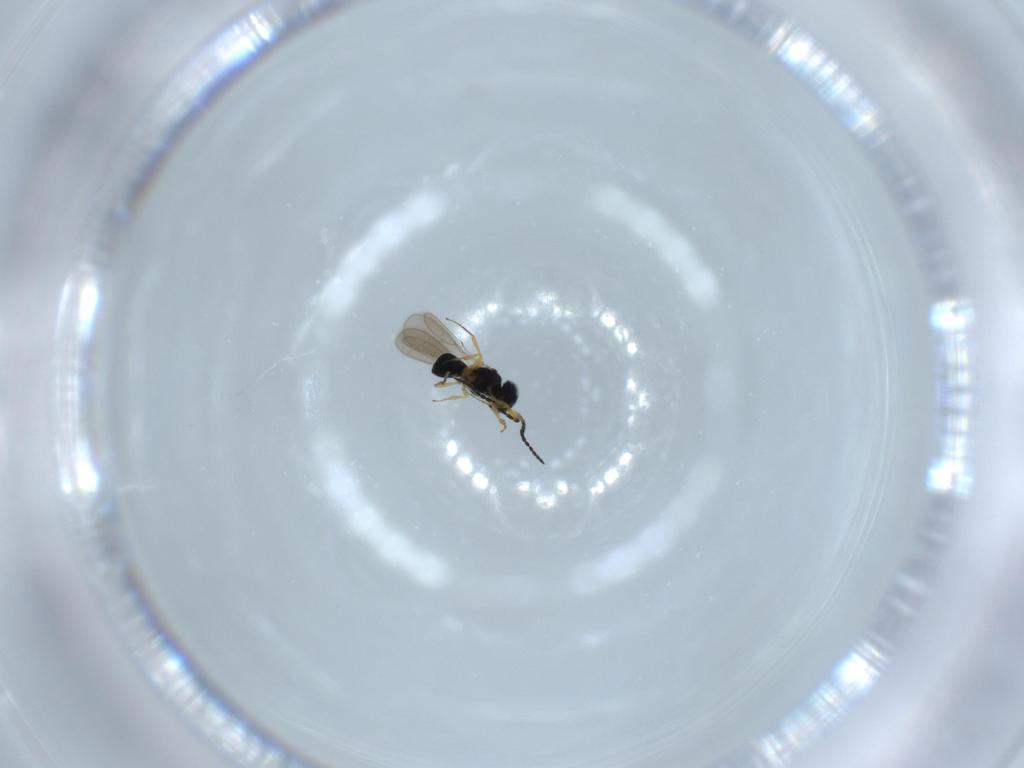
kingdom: Animalia
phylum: Arthropoda
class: Insecta
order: Hymenoptera
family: Scelionidae
